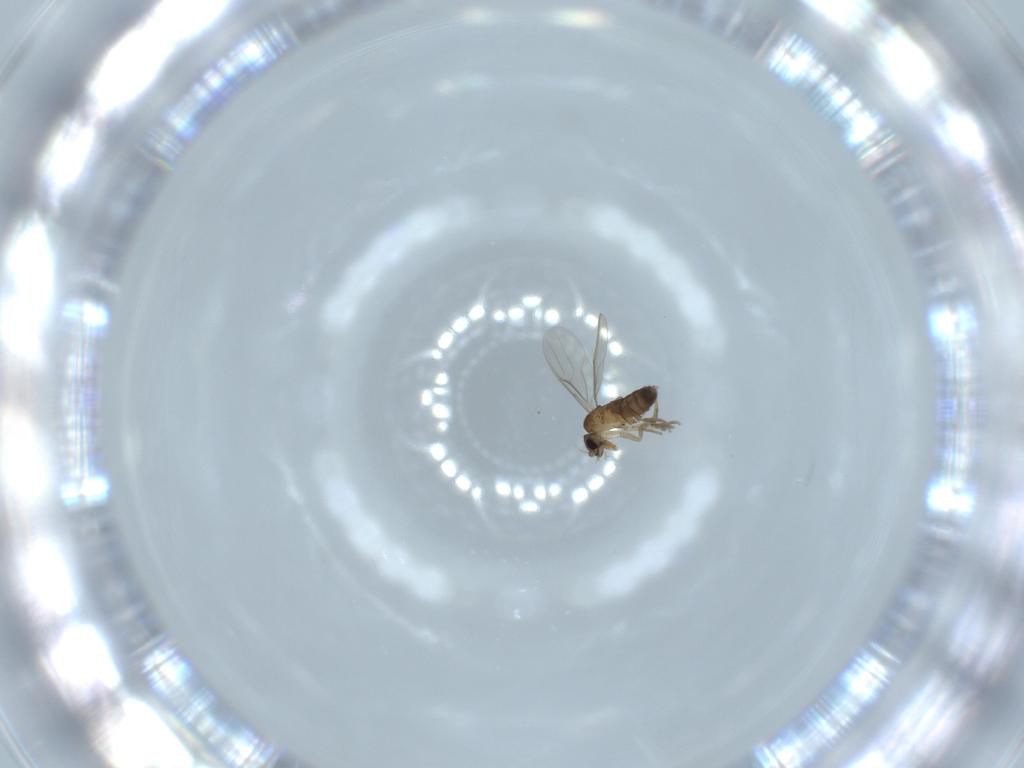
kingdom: Animalia
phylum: Arthropoda
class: Insecta
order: Diptera
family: Phoridae
